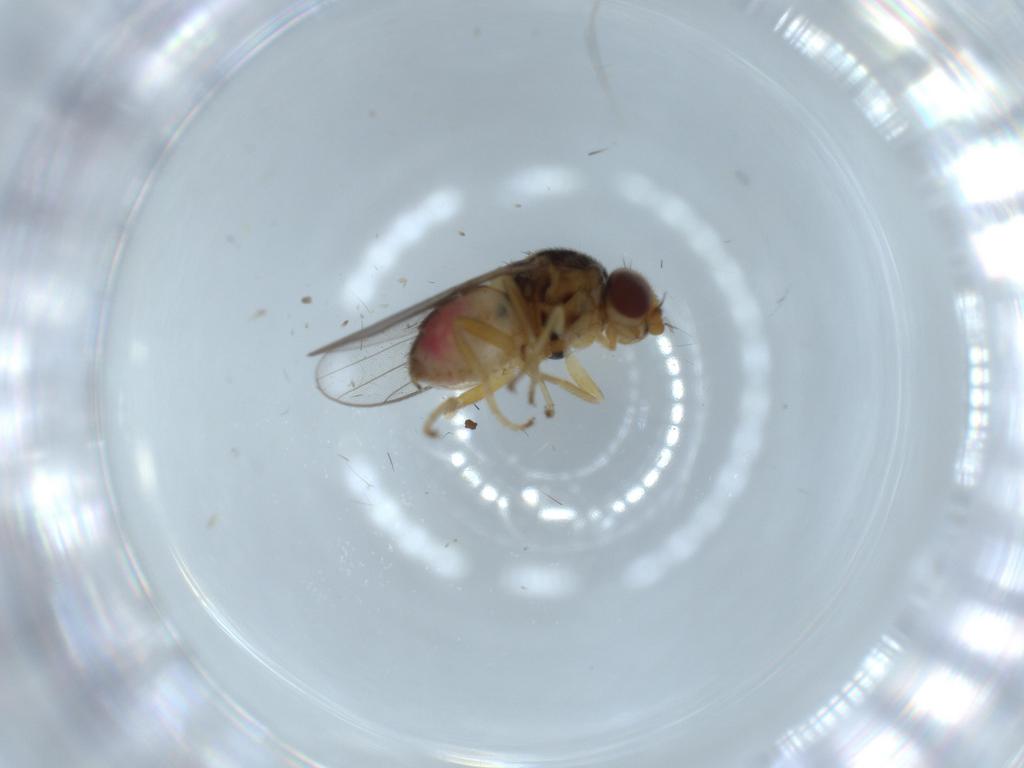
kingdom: Animalia
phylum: Arthropoda
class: Insecta
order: Diptera
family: Chloropidae
